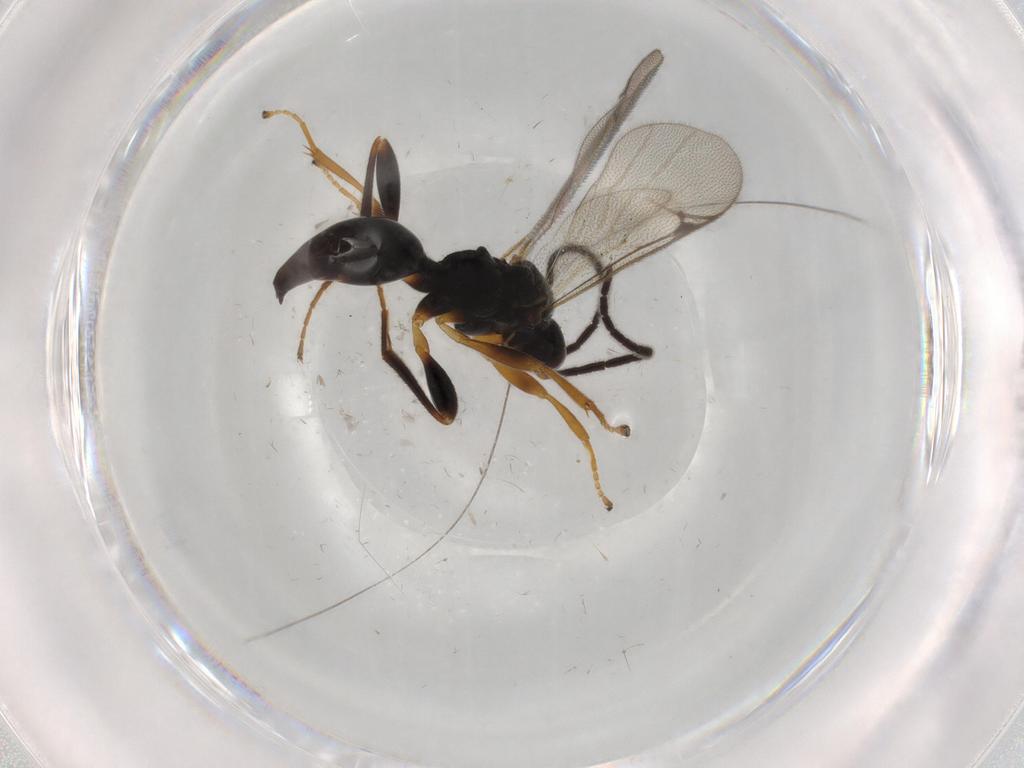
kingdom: Animalia
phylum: Arthropoda
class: Insecta
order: Hymenoptera
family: Proctotrupidae
